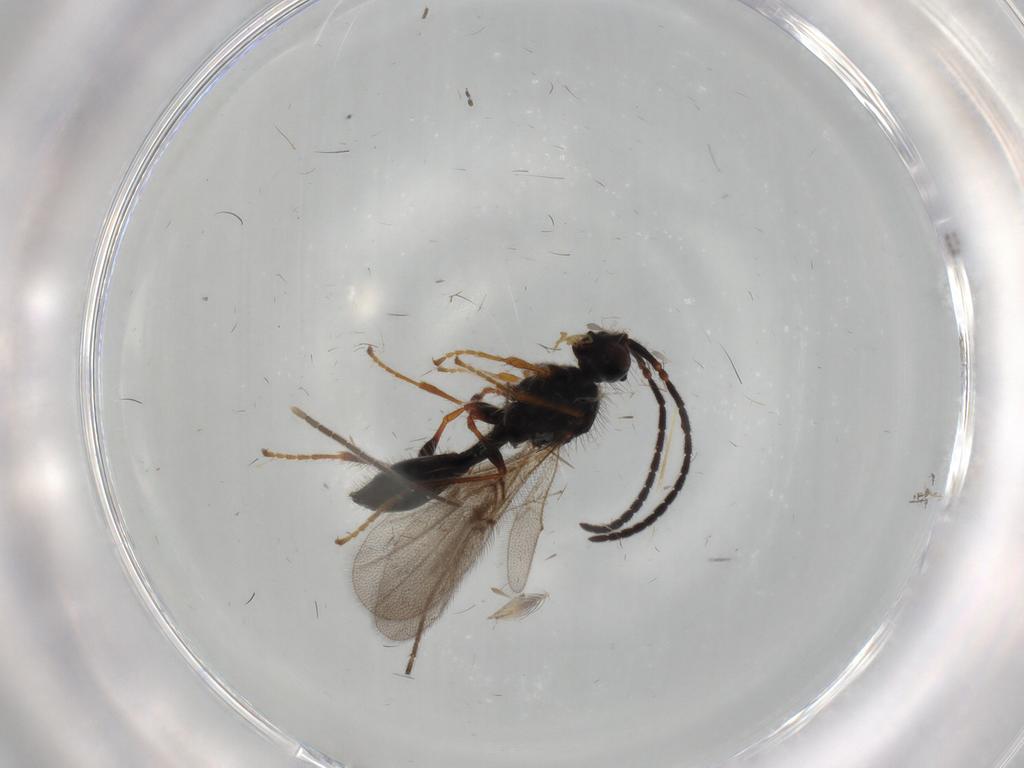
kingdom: Animalia
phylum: Arthropoda
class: Insecta
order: Hymenoptera
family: Diapriidae
